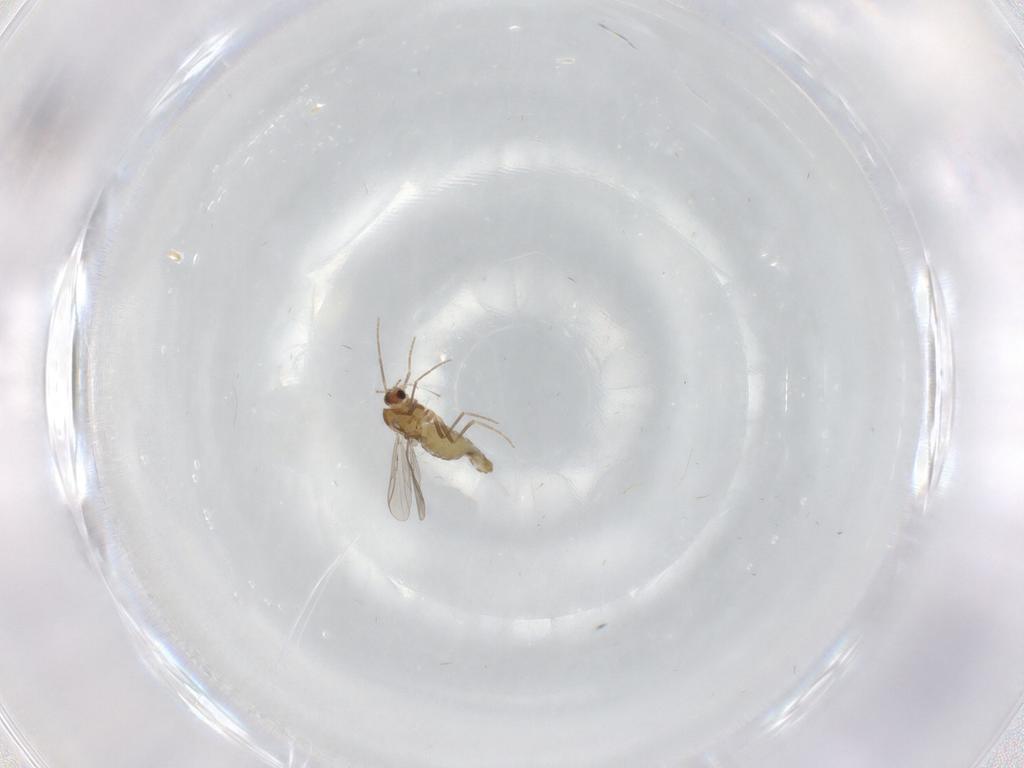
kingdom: Animalia
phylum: Arthropoda
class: Insecta
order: Diptera
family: Chironomidae
